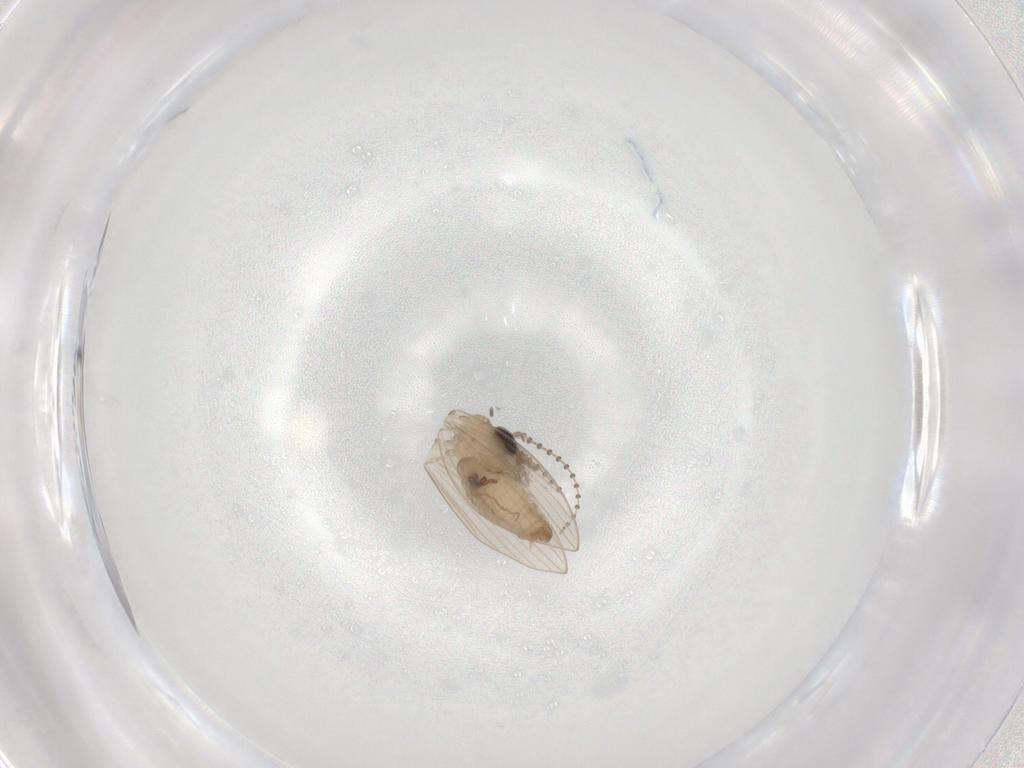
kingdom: Animalia
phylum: Arthropoda
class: Insecta
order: Diptera
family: Psychodidae
